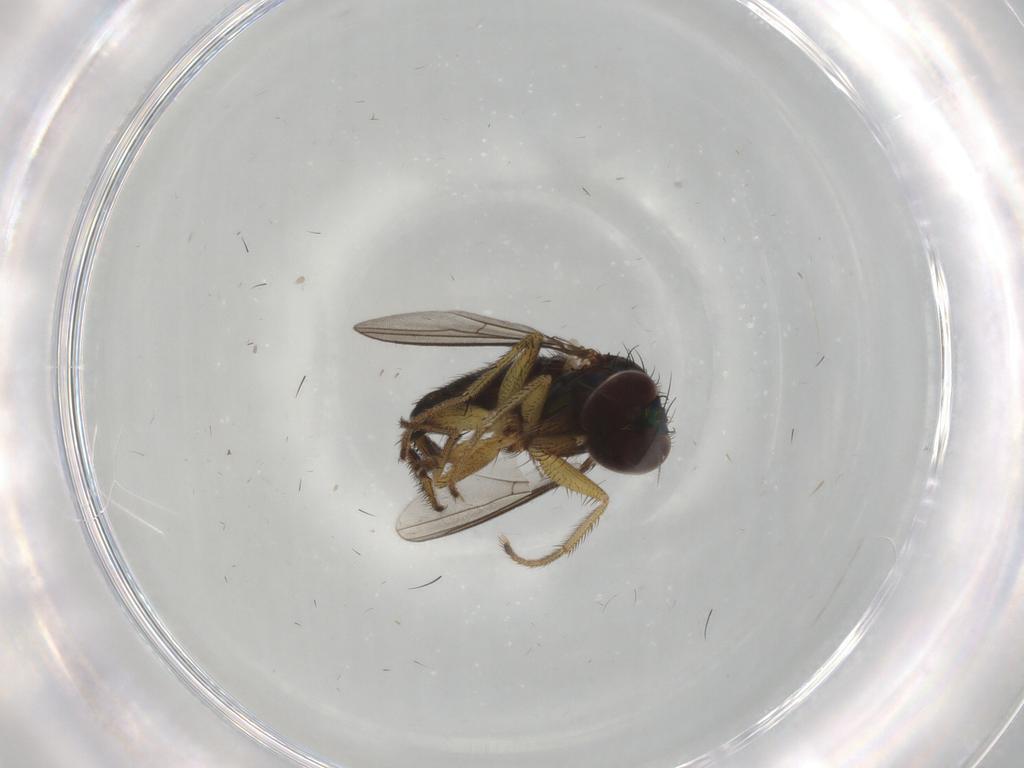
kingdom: Animalia
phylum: Arthropoda
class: Insecta
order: Diptera
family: Dolichopodidae
